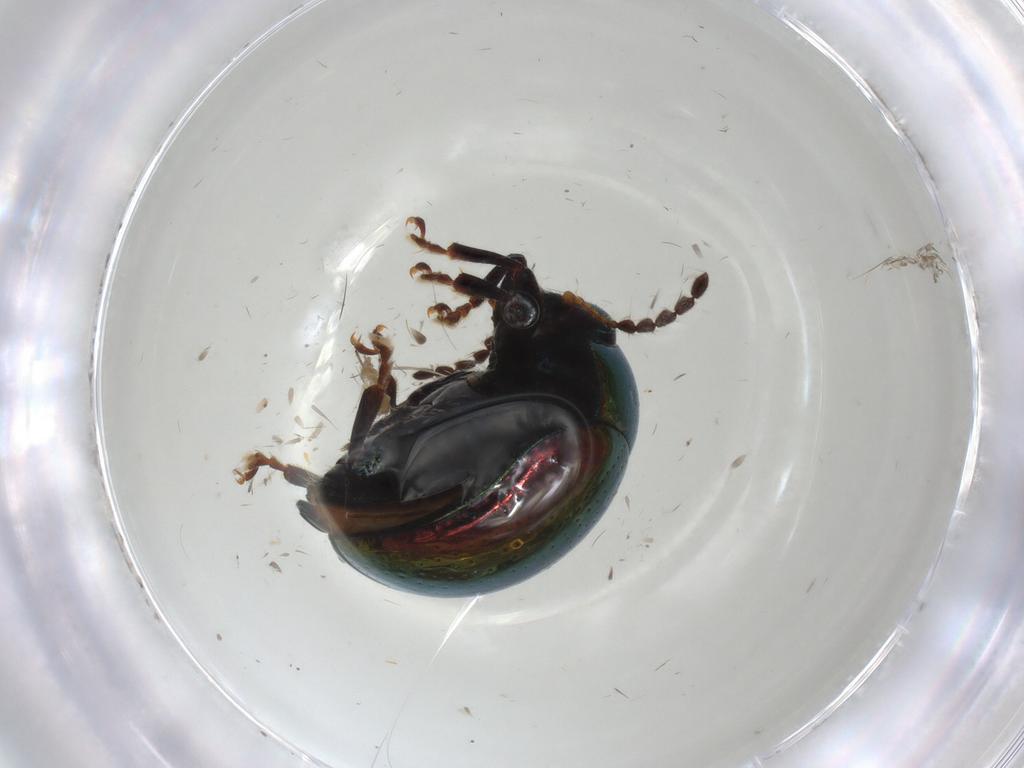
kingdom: Animalia
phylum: Arthropoda
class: Insecta
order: Coleoptera
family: Chrysomelidae
